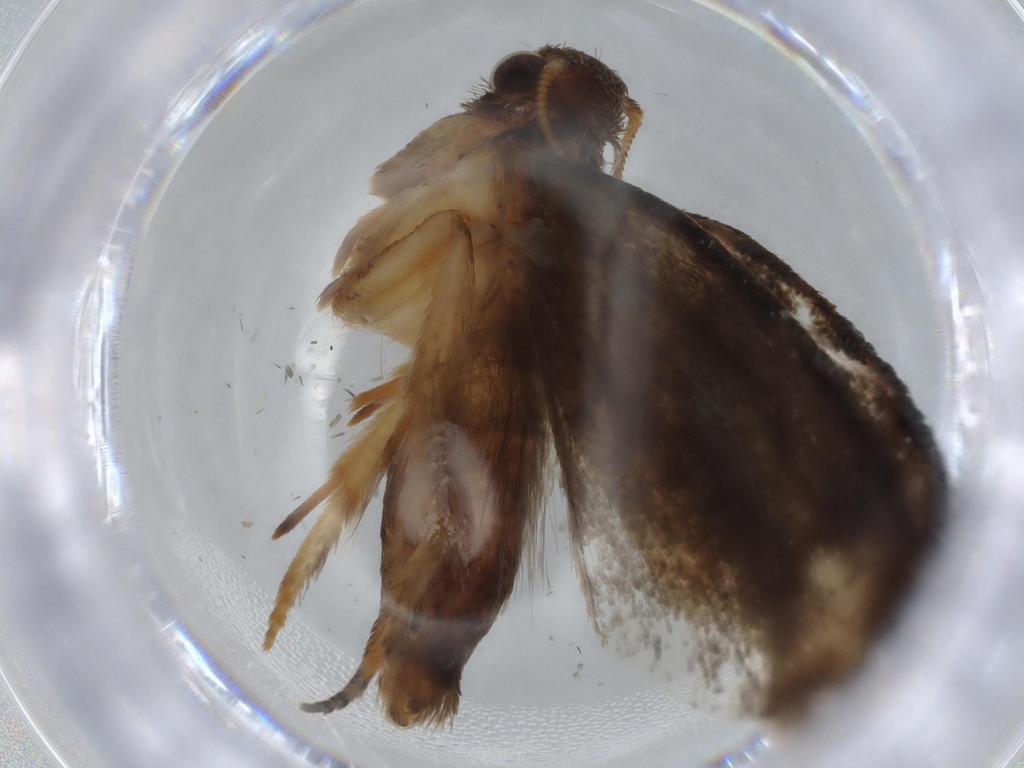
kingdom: Animalia
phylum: Arthropoda
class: Insecta
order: Lepidoptera
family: Tineidae
